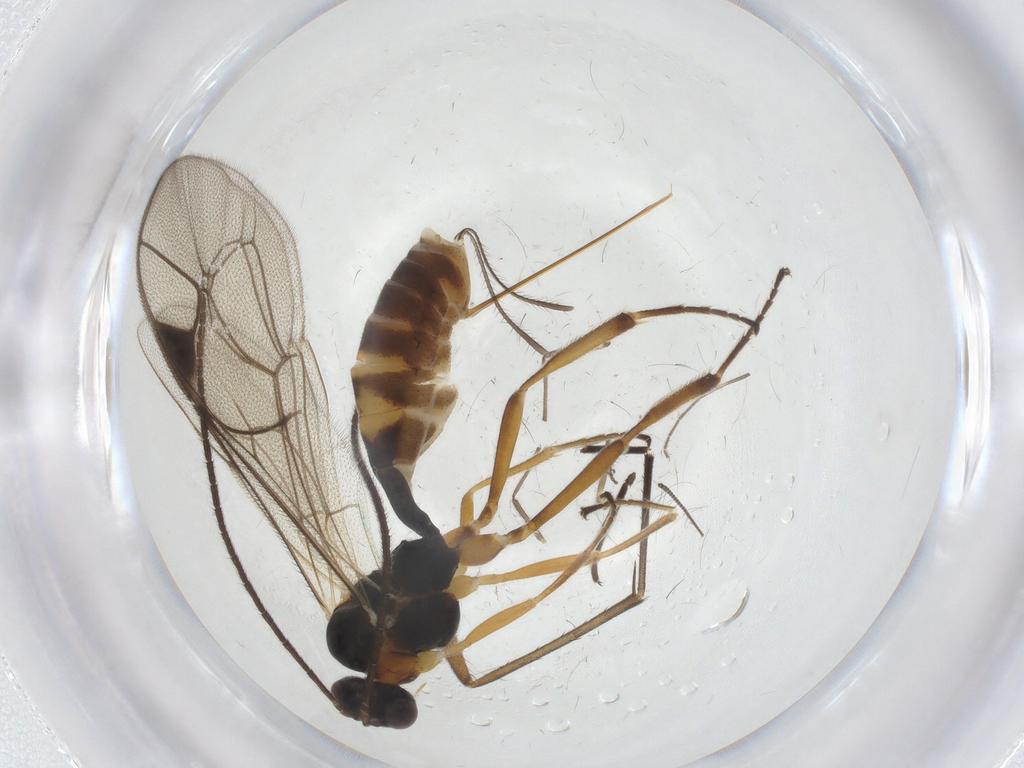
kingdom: Animalia
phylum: Arthropoda
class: Insecta
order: Hymenoptera
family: Ichneumonidae
